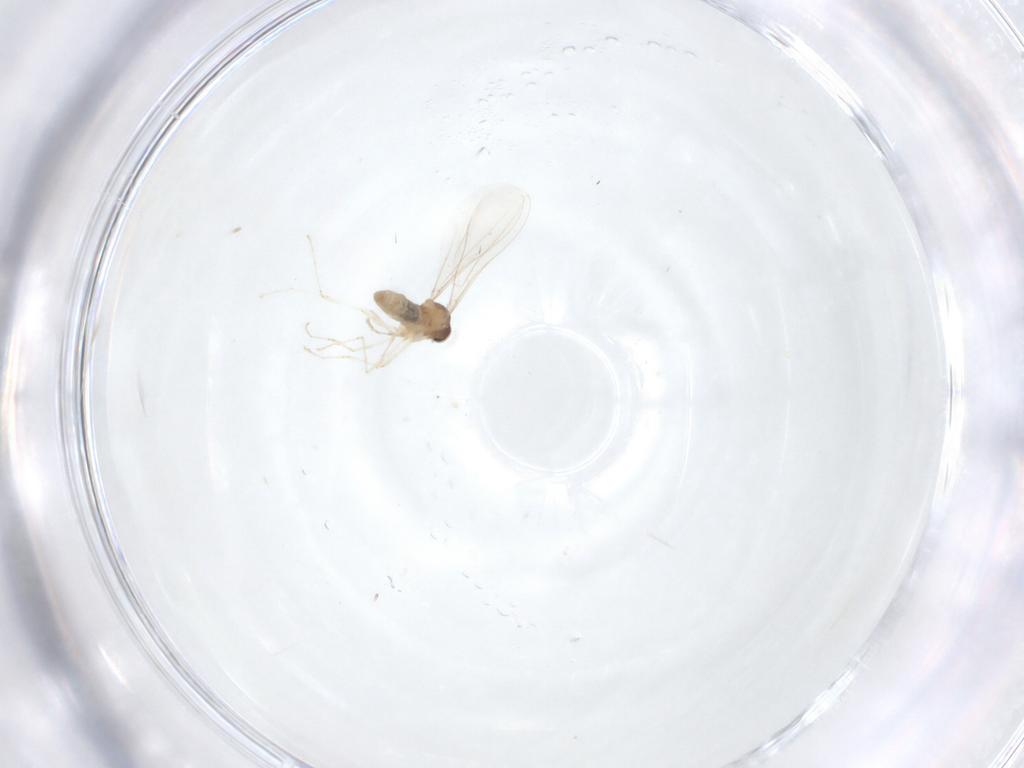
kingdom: Animalia
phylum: Arthropoda
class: Insecta
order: Diptera
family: Cecidomyiidae
